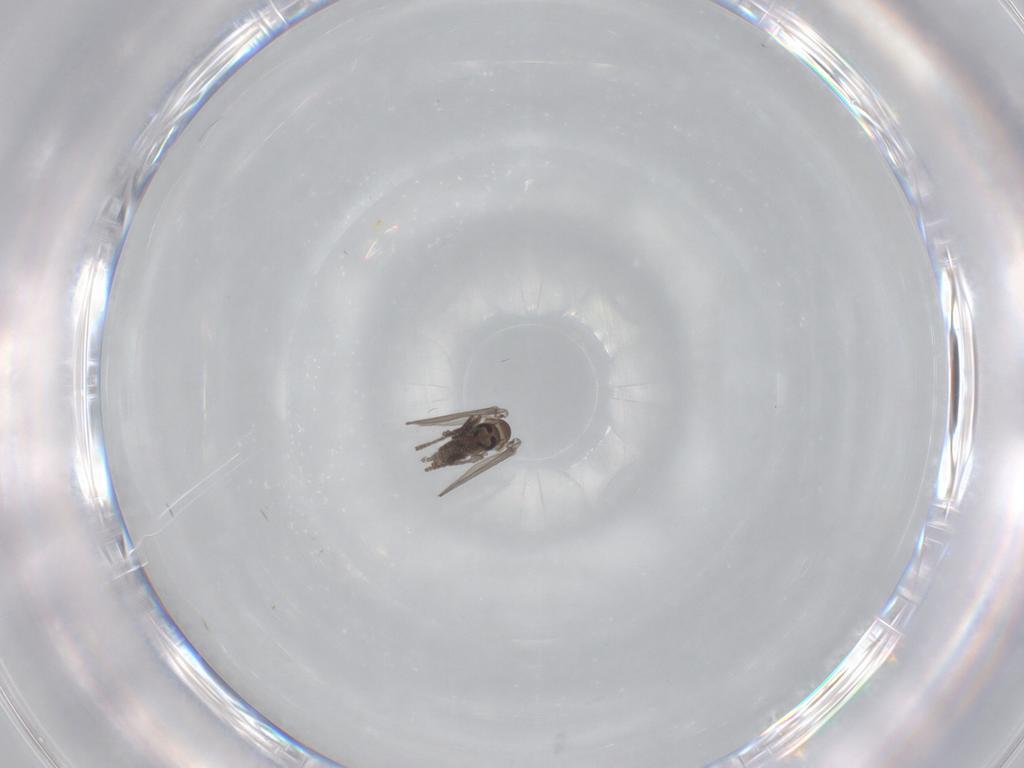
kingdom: Animalia
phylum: Arthropoda
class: Insecta
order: Diptera
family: Psychodidae
